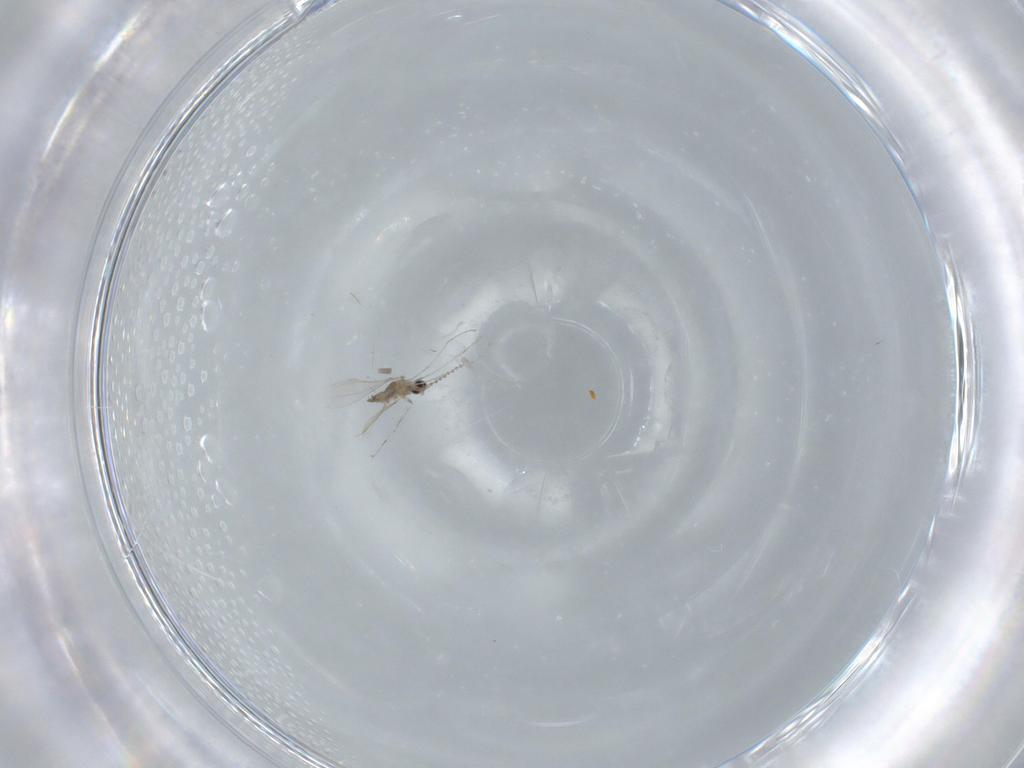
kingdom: Animalia
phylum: Arthropoda
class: Insecta
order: Diptera
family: Cecidomyiidae
